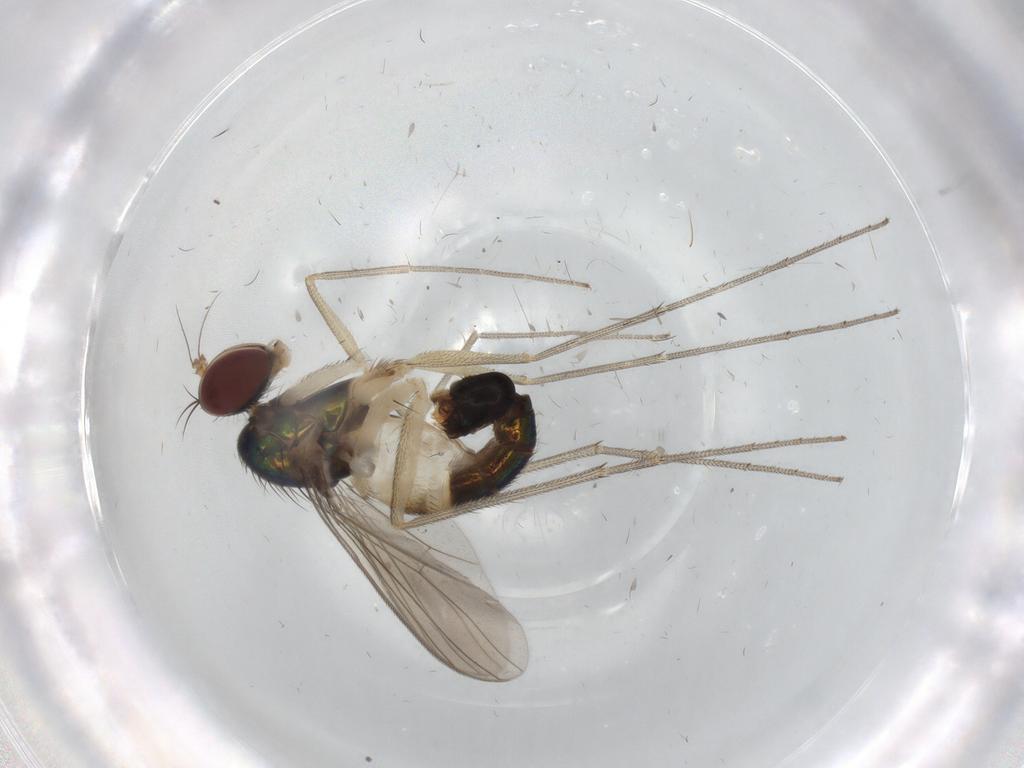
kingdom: Animalia
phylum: Arthropoda
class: Insecta
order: Diptera
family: Dolichopodidae
